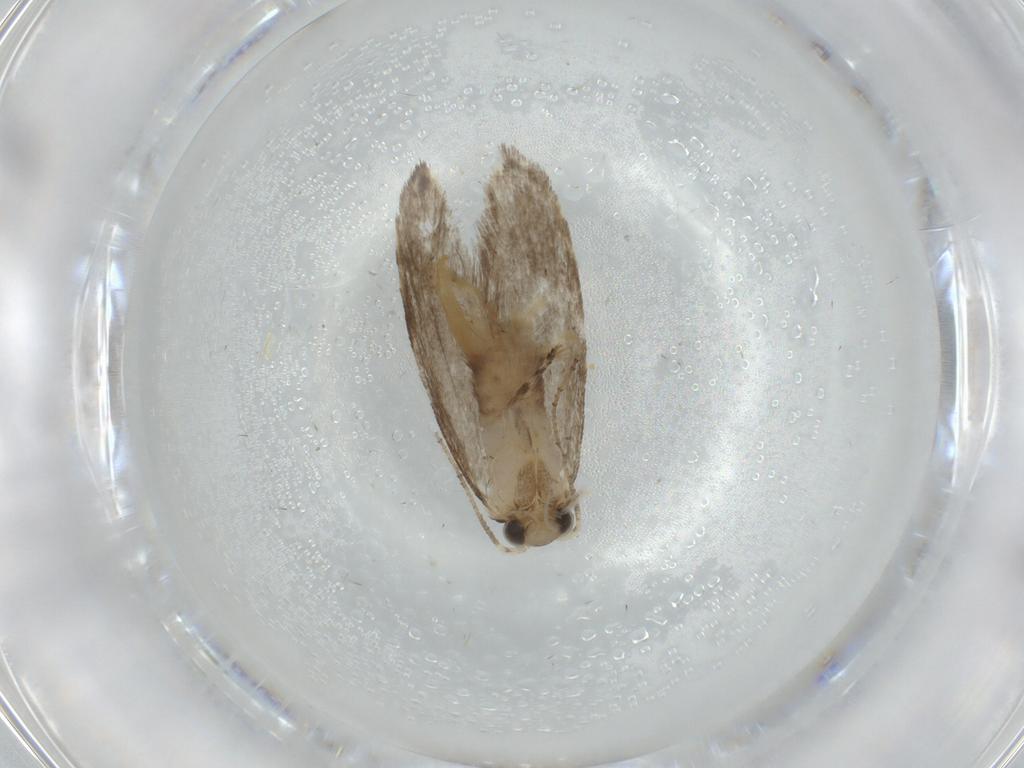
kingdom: Animalia
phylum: Arthropoda
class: Insecta
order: Lepidoptera
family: Tineidae
